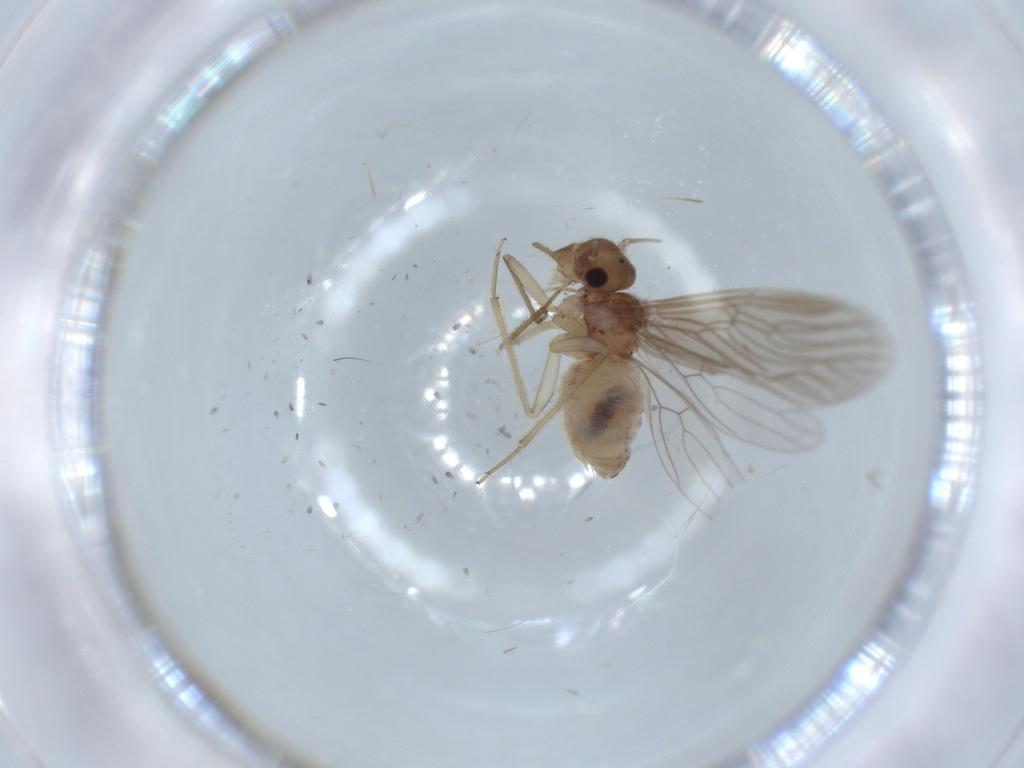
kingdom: Animalia
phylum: Arthropoda
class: Insecta
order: Psocodea
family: Cladiopsocidae
